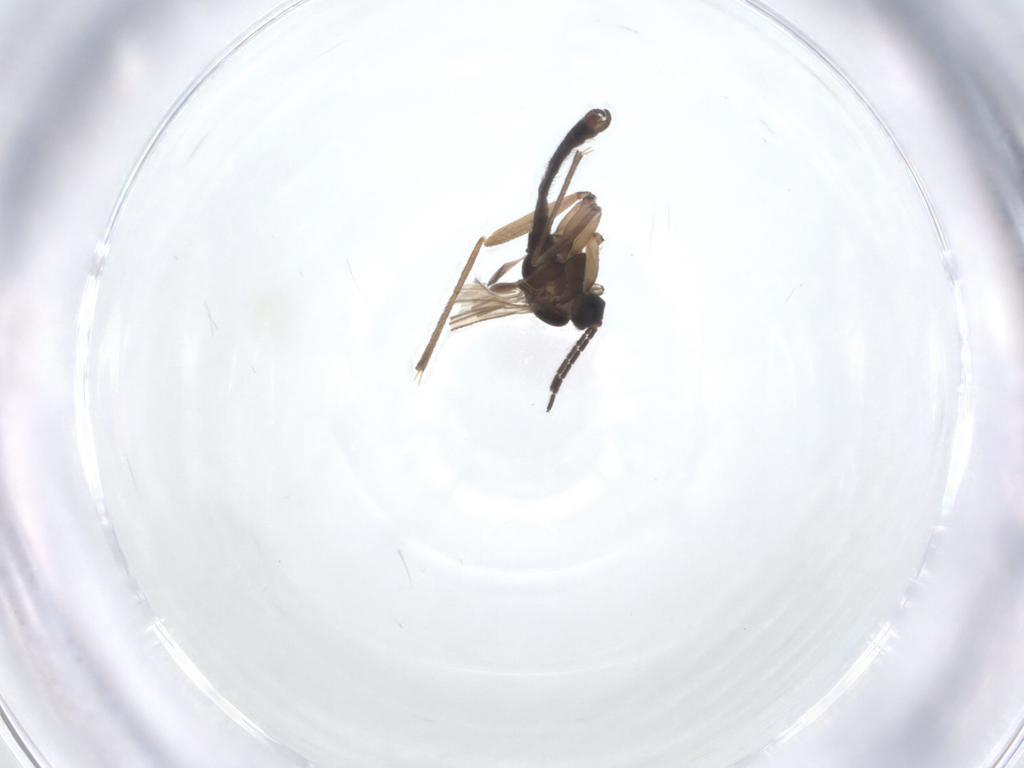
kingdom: Animalia
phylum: Arthropoda
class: Insecta
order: Diptera
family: Sciaridae
